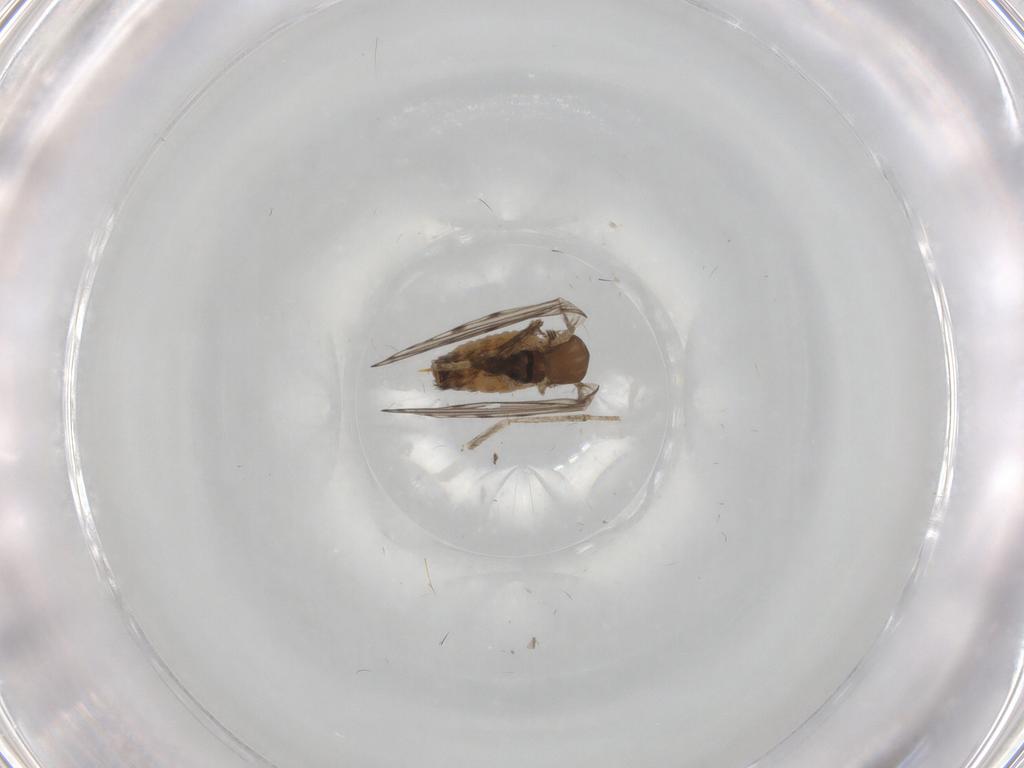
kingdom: Animalia
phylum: Arthropoda
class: Insecta
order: Diptera
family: Psychodidae
